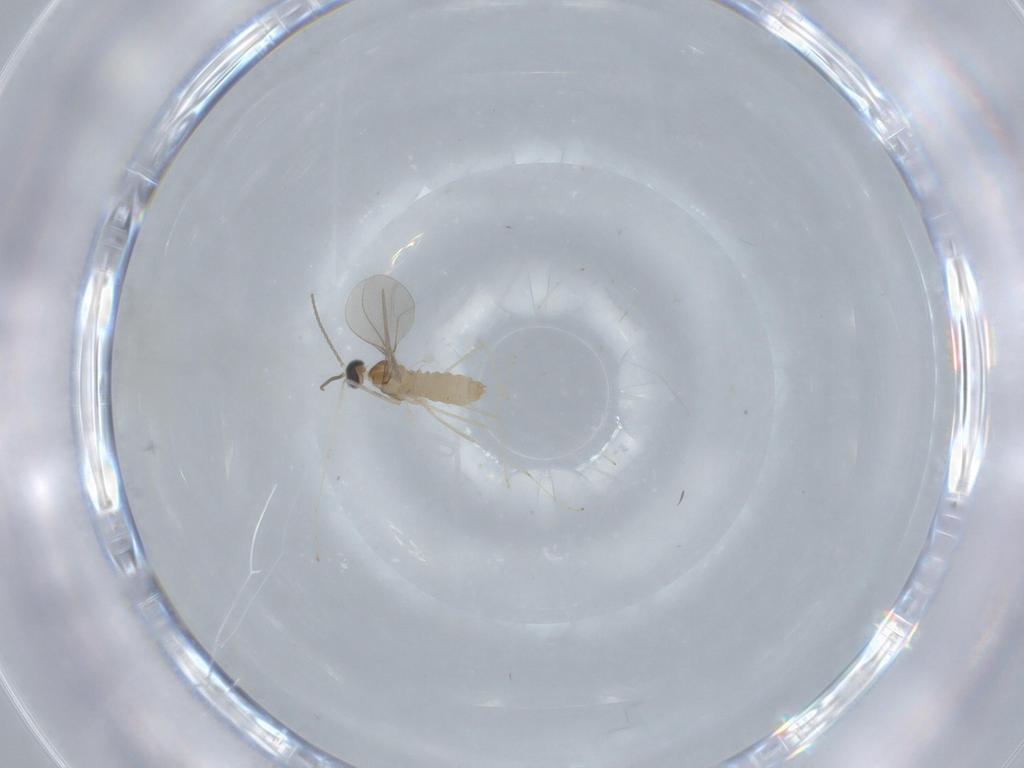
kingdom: Animalia
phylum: Arthropoda
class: Insecta
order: Diptera
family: Cecidomyiidae
